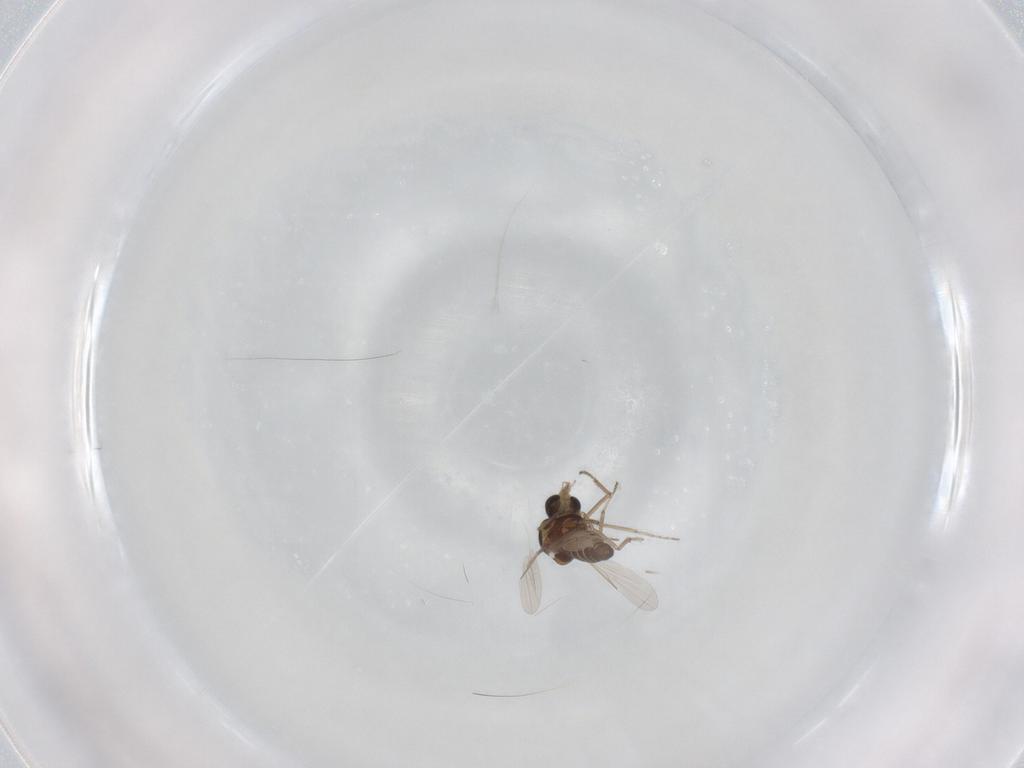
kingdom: Animalia
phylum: Arthropoda
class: Insecta
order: Diptera
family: Ceratopogonidae
